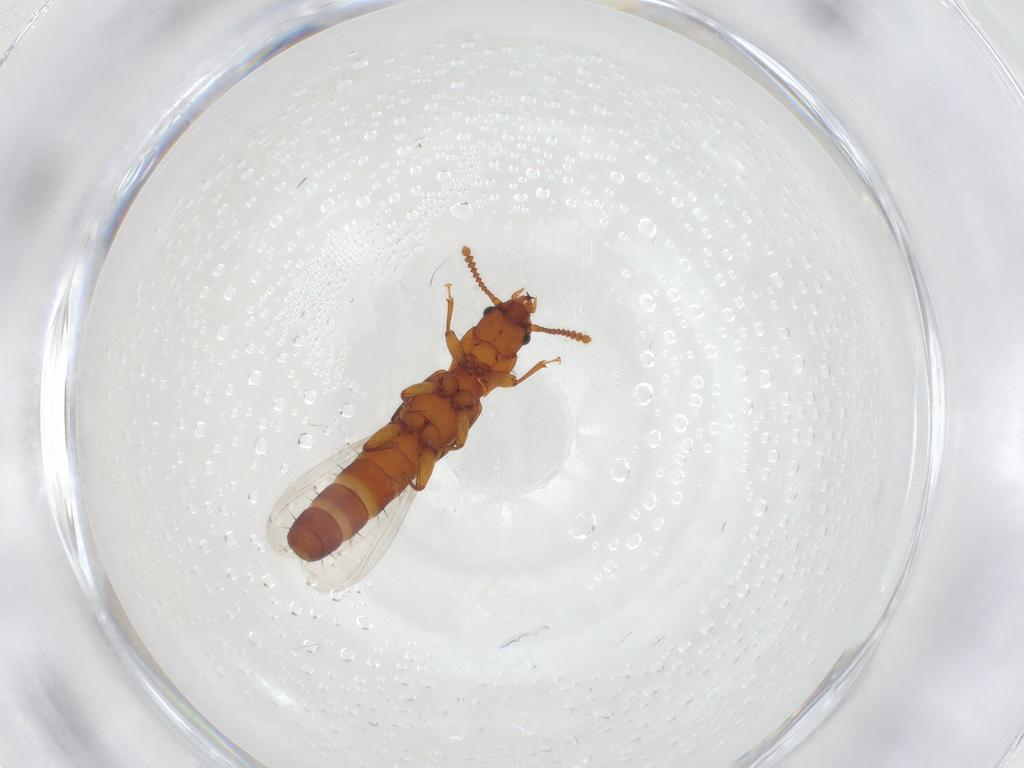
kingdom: Animalia
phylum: Arthropoda
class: Insecta
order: Coleoptera
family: Staphylinidae
